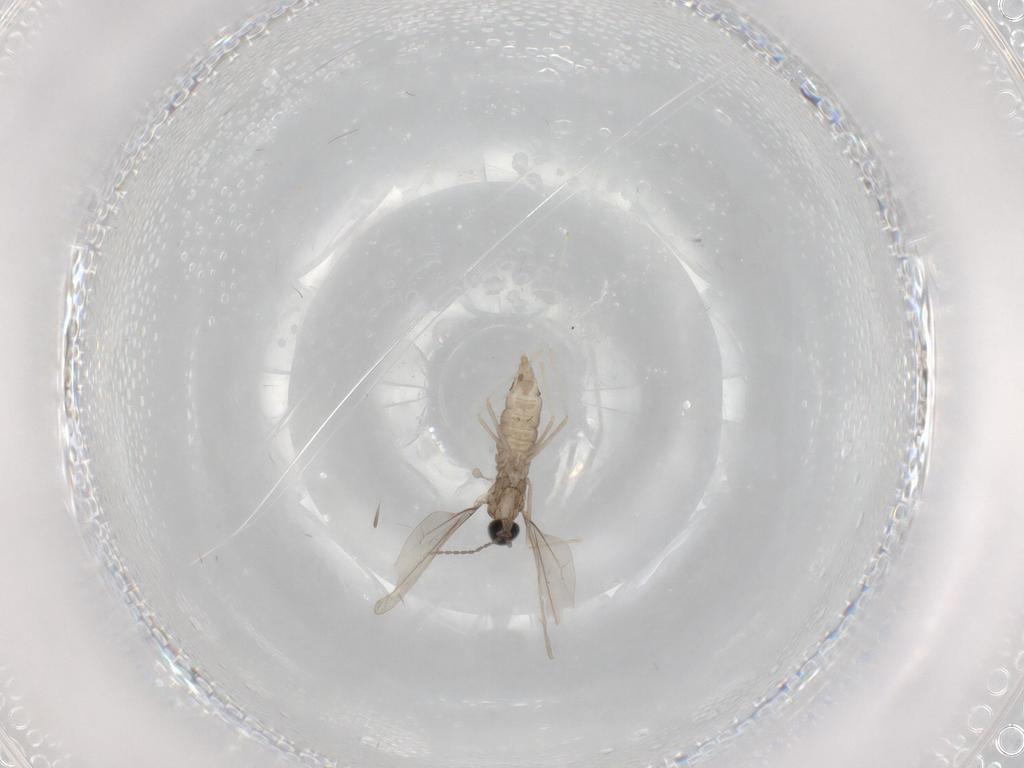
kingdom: Animalia
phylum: Arthropoda
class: Insecta
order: Diptera
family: Cecidomyiidae
